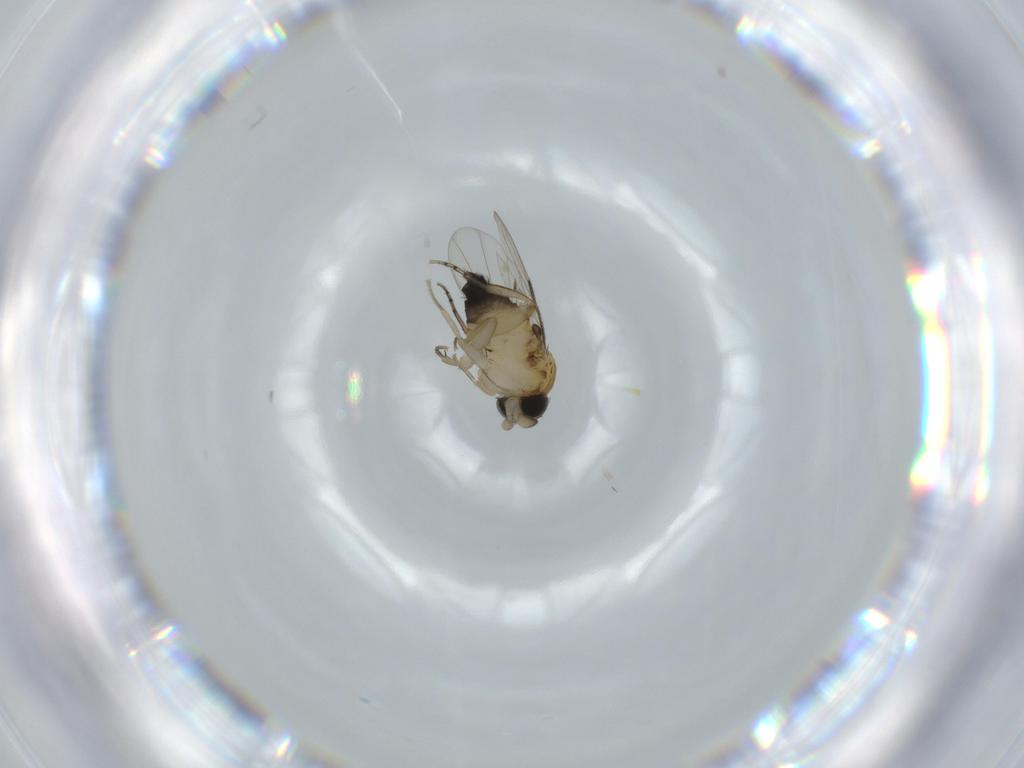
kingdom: Animalia
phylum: Arthropoda
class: Insecta
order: Diptera
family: Phoridae
